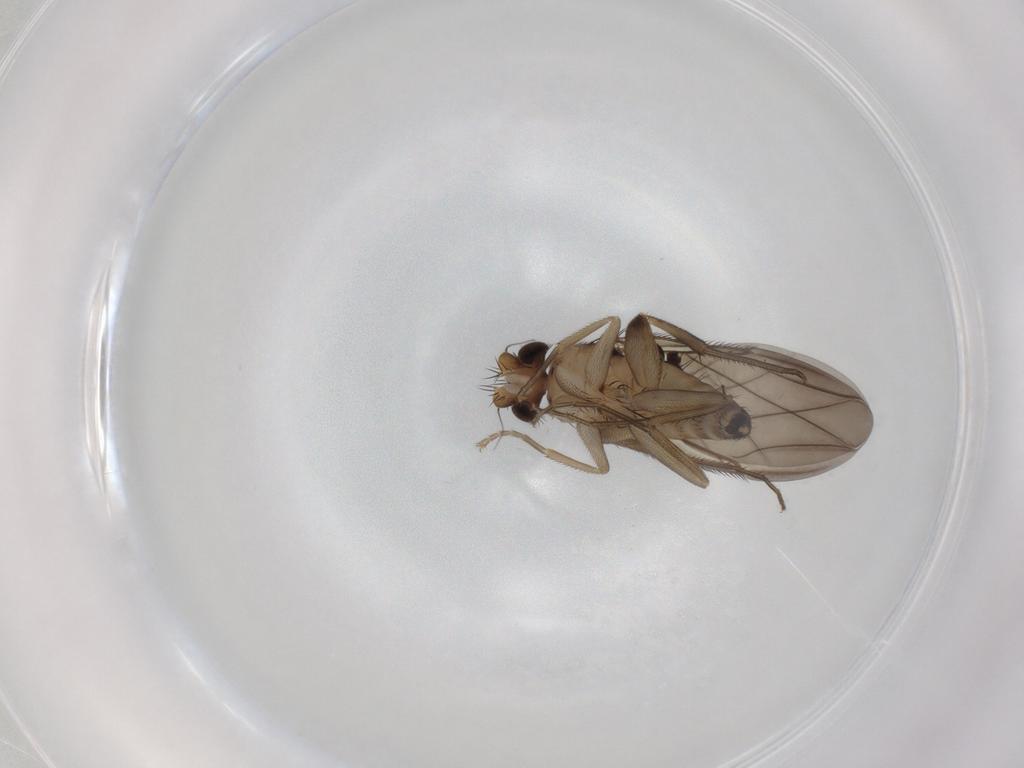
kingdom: Animalia
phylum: Arthropoda
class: Insecta
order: Diptera
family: Phoridae
